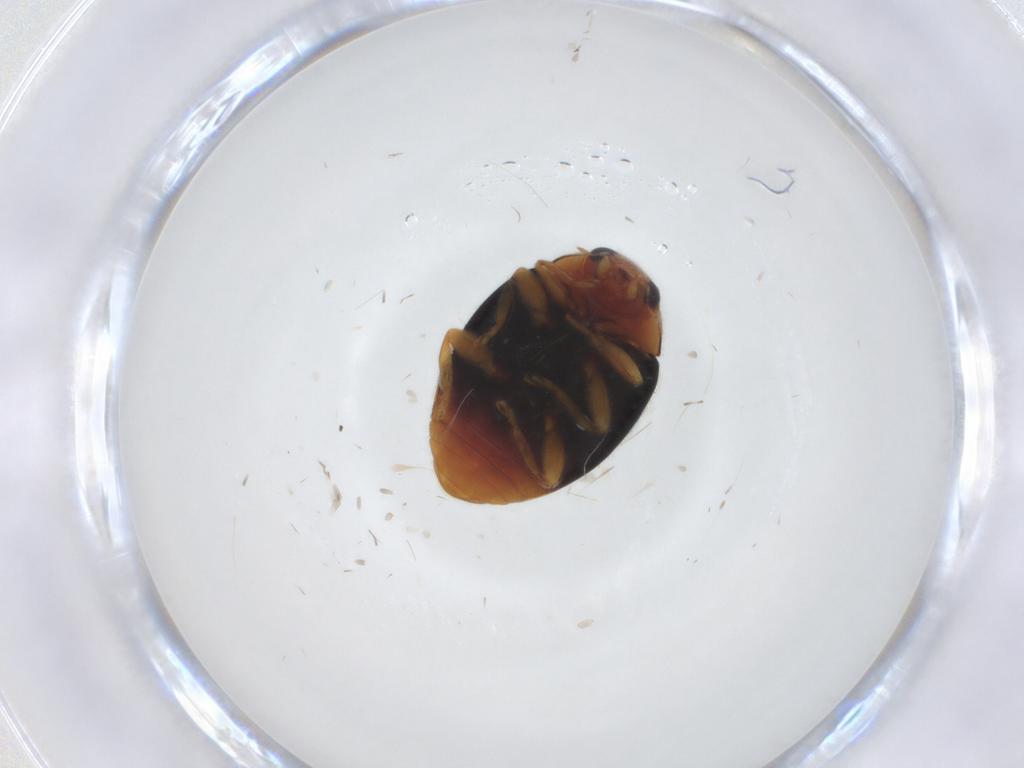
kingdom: Animalia
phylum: Arthropoda
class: Insecta
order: Coleoptera
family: Coccinellidae
